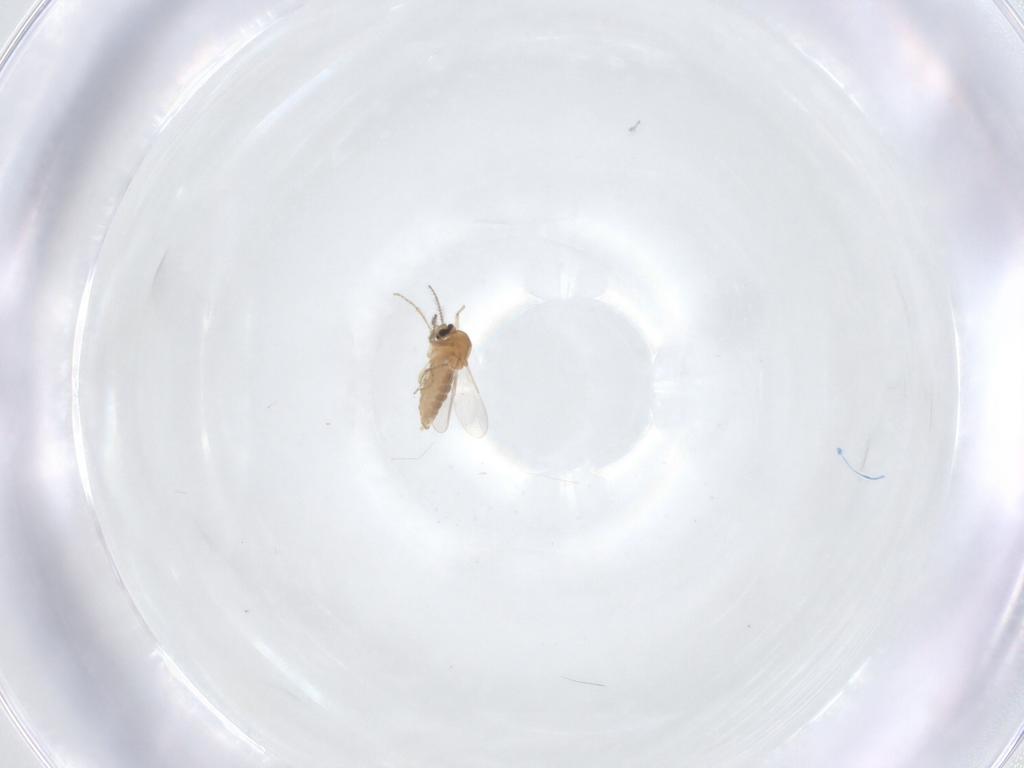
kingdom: Animalia
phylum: Arthropoda
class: Insecta
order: Diptera
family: Ceratopogonidae
